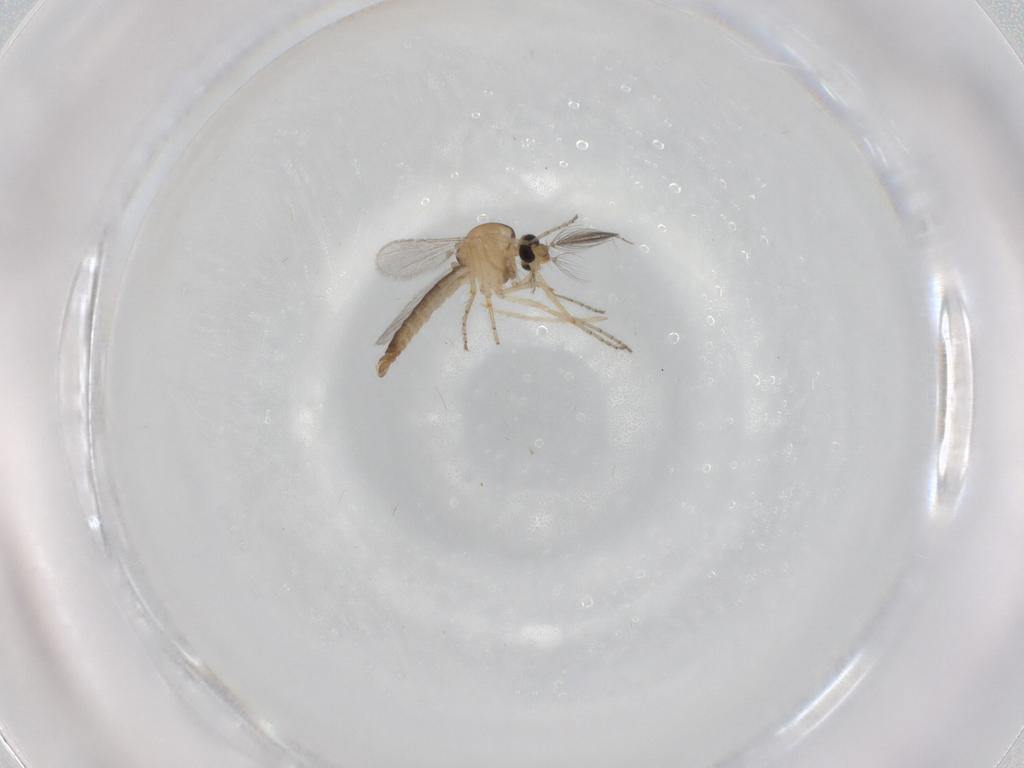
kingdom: Animalia
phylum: Arthropoda
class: Insecta
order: Diptera
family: Ceratopogonidae
